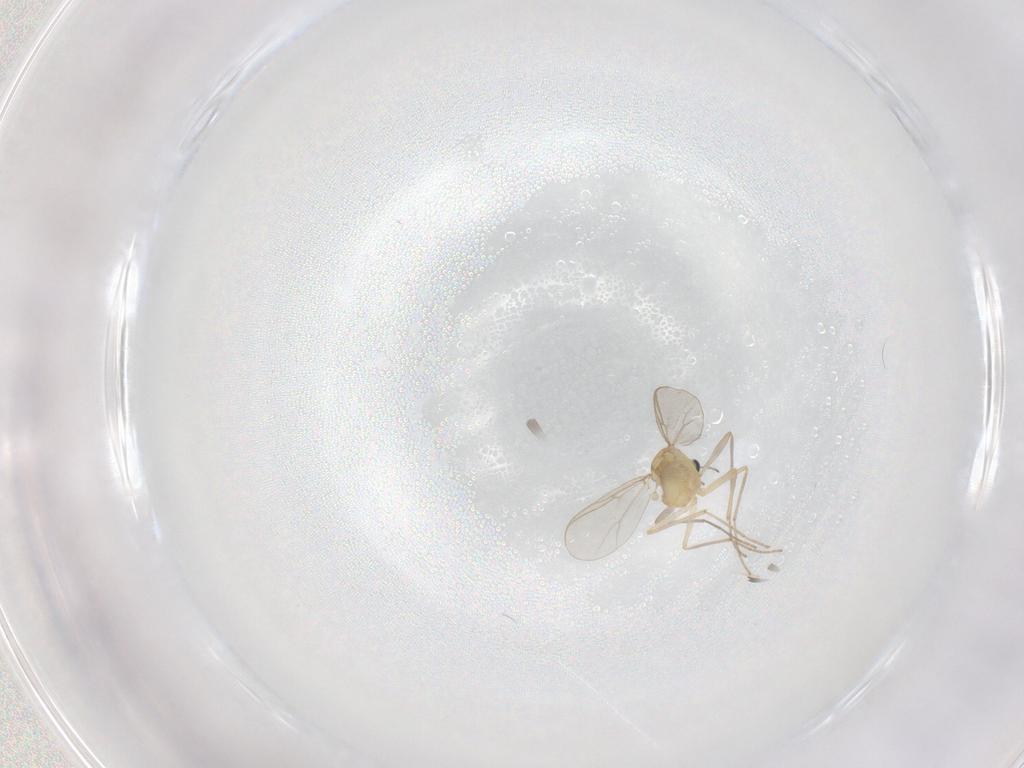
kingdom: Animalia
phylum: Arthropoda
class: Insecta
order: Diptera
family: Chironomidae
